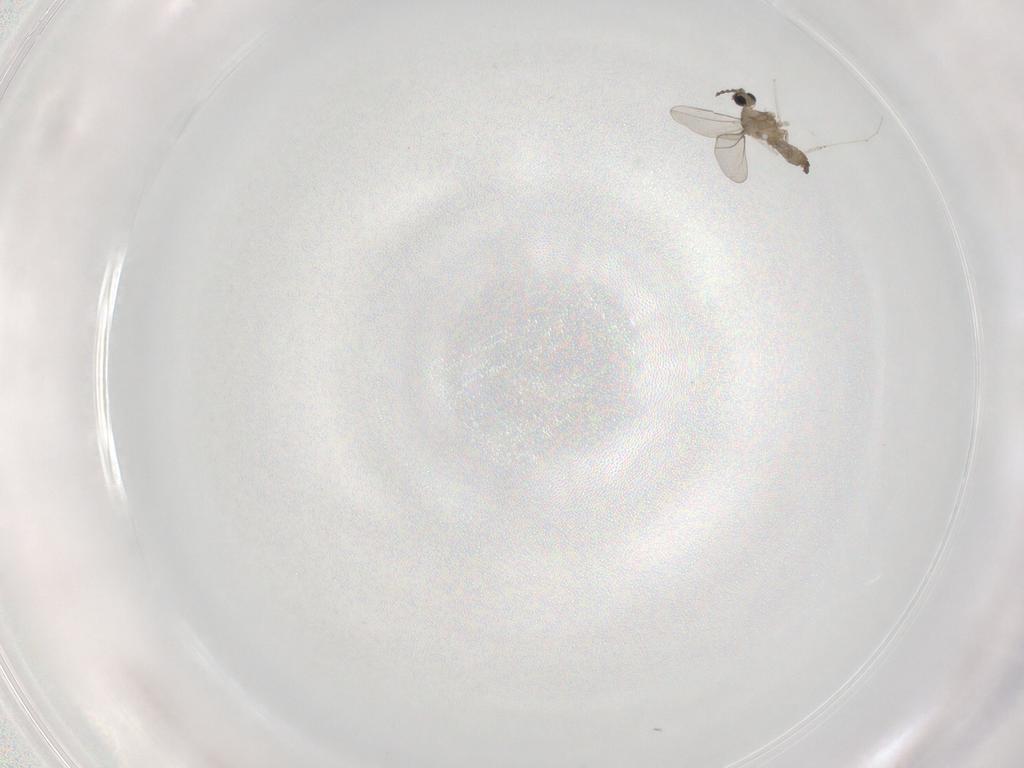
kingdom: Animalia
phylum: Arthropoda
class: Insecta
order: Diptera
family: Cecidomyiidae
